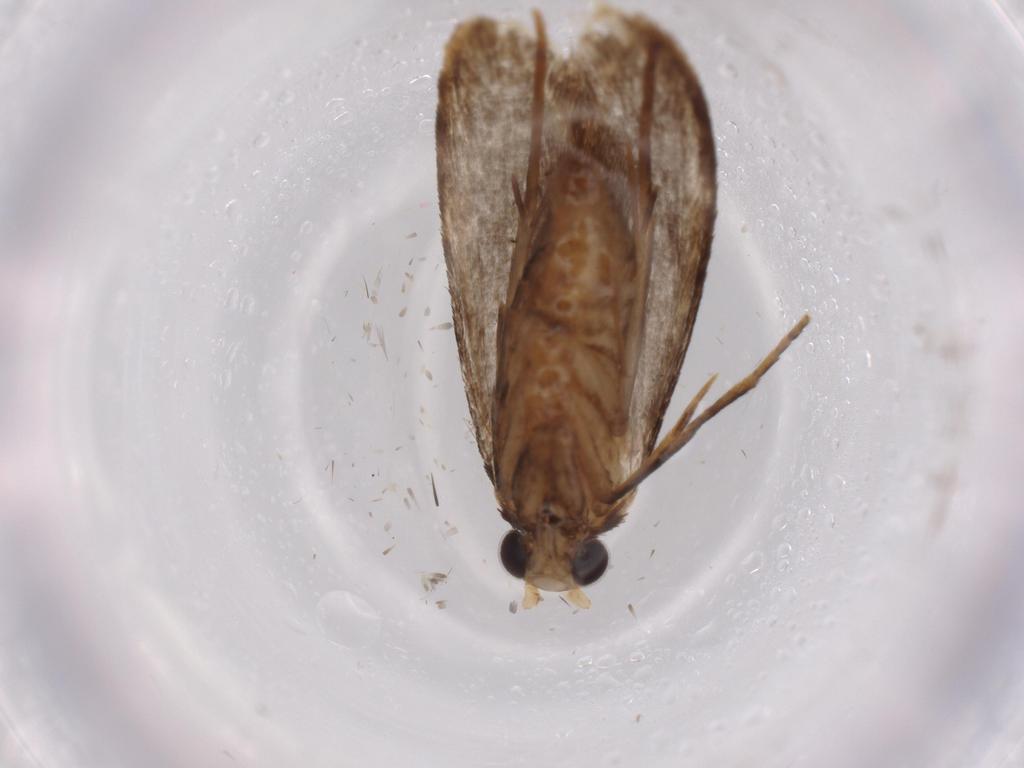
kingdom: Animalia
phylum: Arthropoda
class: Insecta
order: Lepidoptera
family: Tineidae
